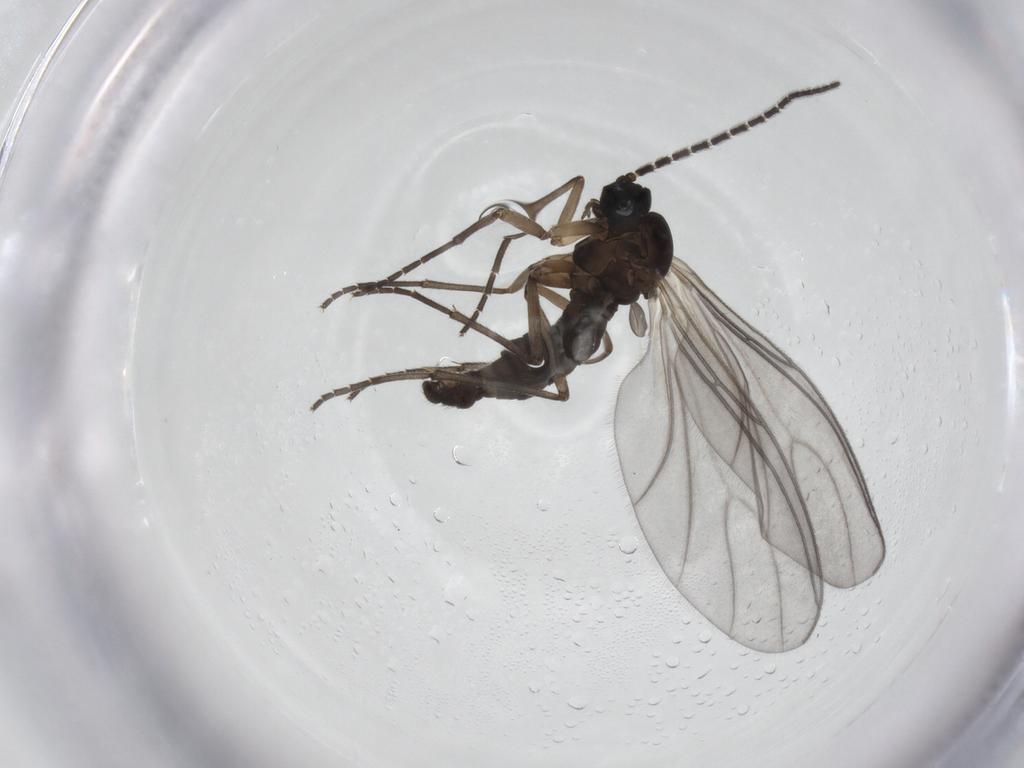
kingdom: Animalia
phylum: Arthropoda
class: Insecta
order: Diptera
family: Sciaridae
